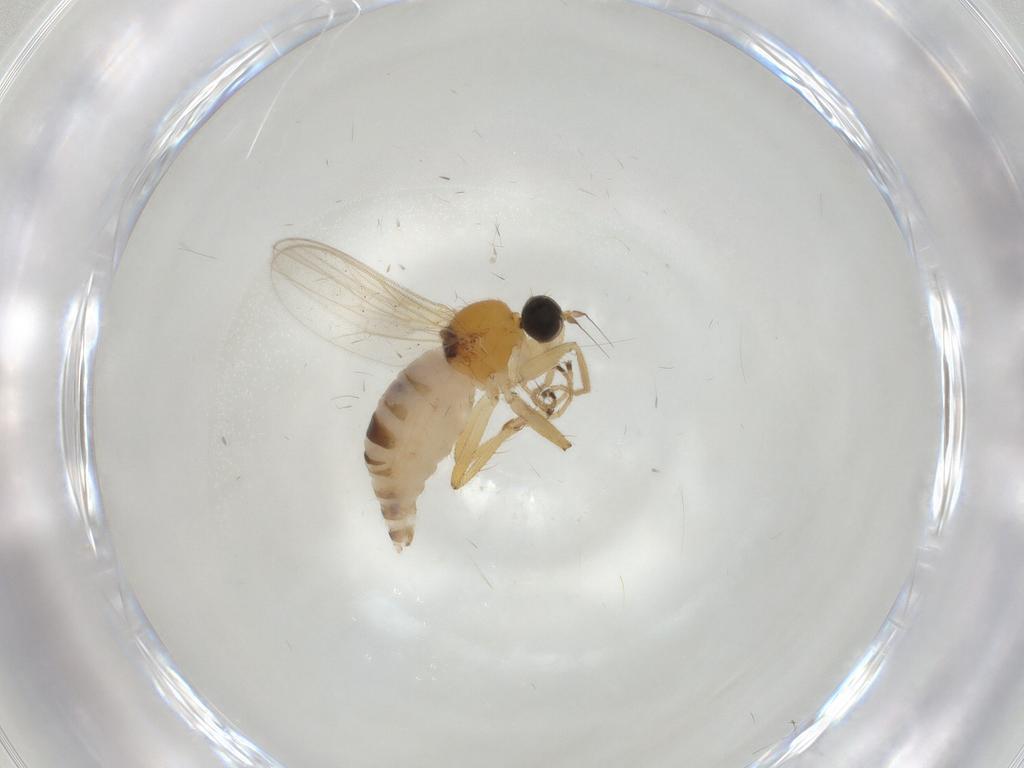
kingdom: Animalia
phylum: Arthropoda
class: Insecta
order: Diptera
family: Hybotidae
